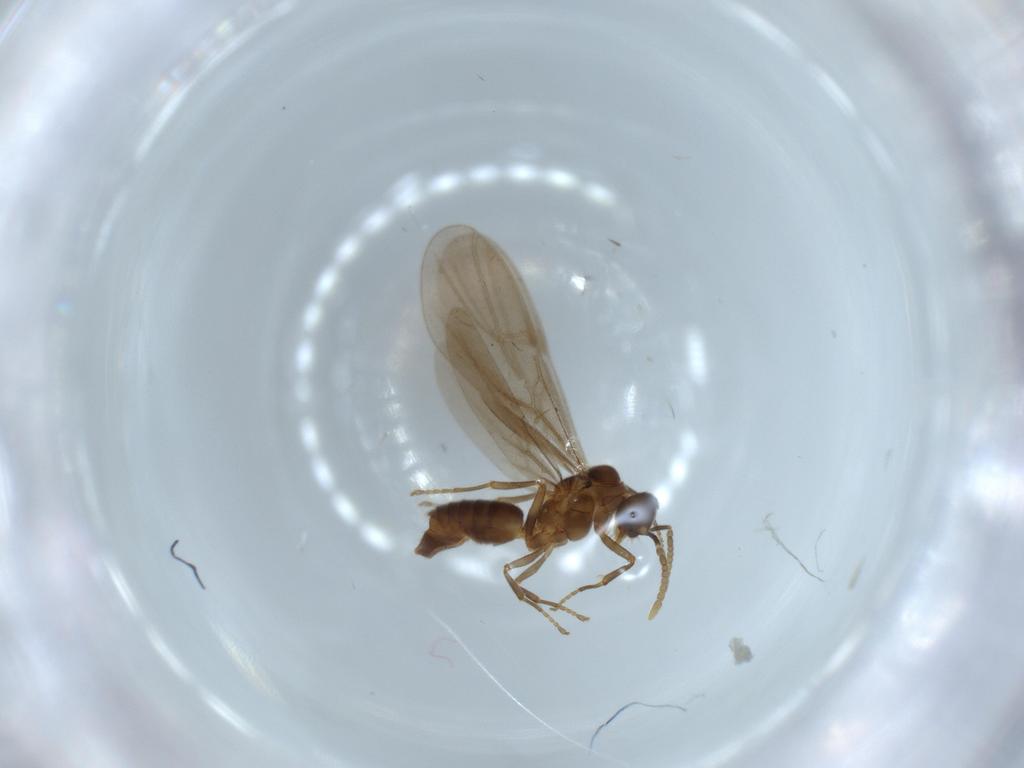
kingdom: Animalia
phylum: Arthropoda
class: Insecta
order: Hymenoptera
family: Formicidae
